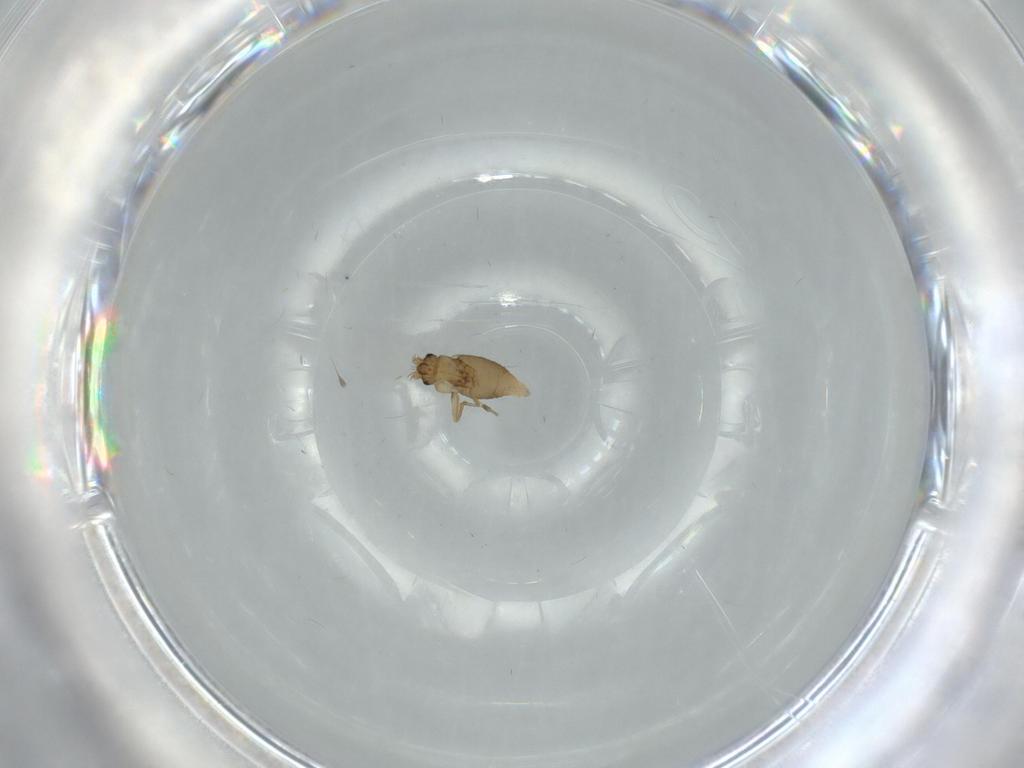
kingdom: Animalia
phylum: Arthropoda
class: Insecta
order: Diptera
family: Phoridae
